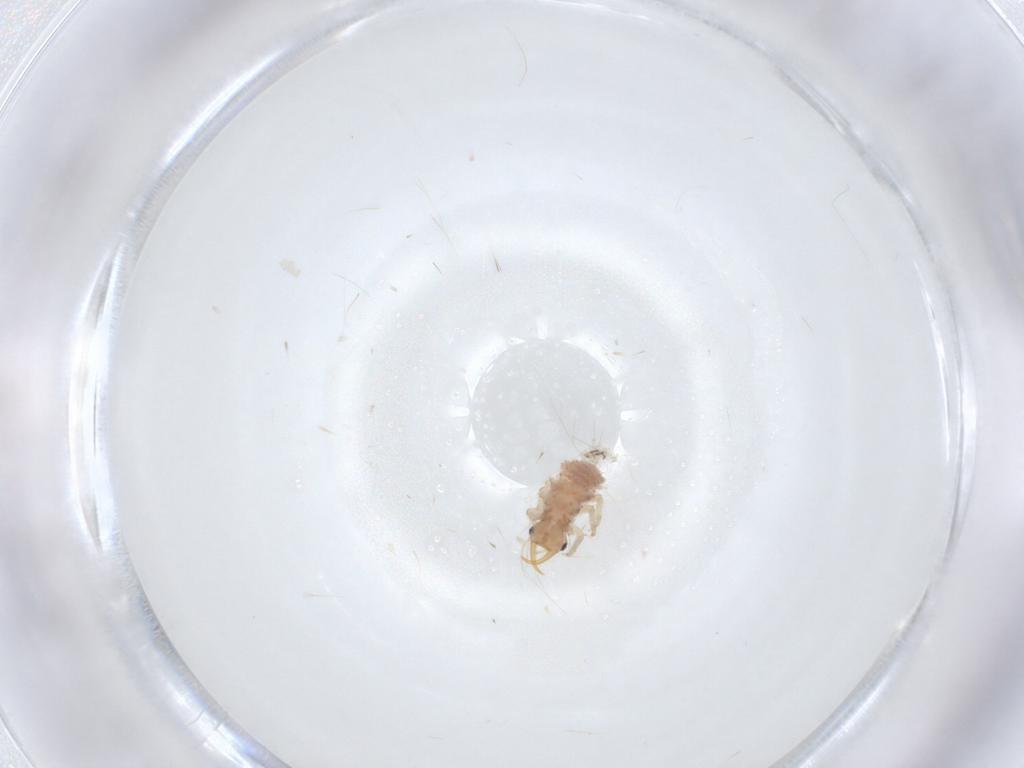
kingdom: Animalia
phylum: Arthropoda
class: Insecta
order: Neuroptera
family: Chrysopidae
